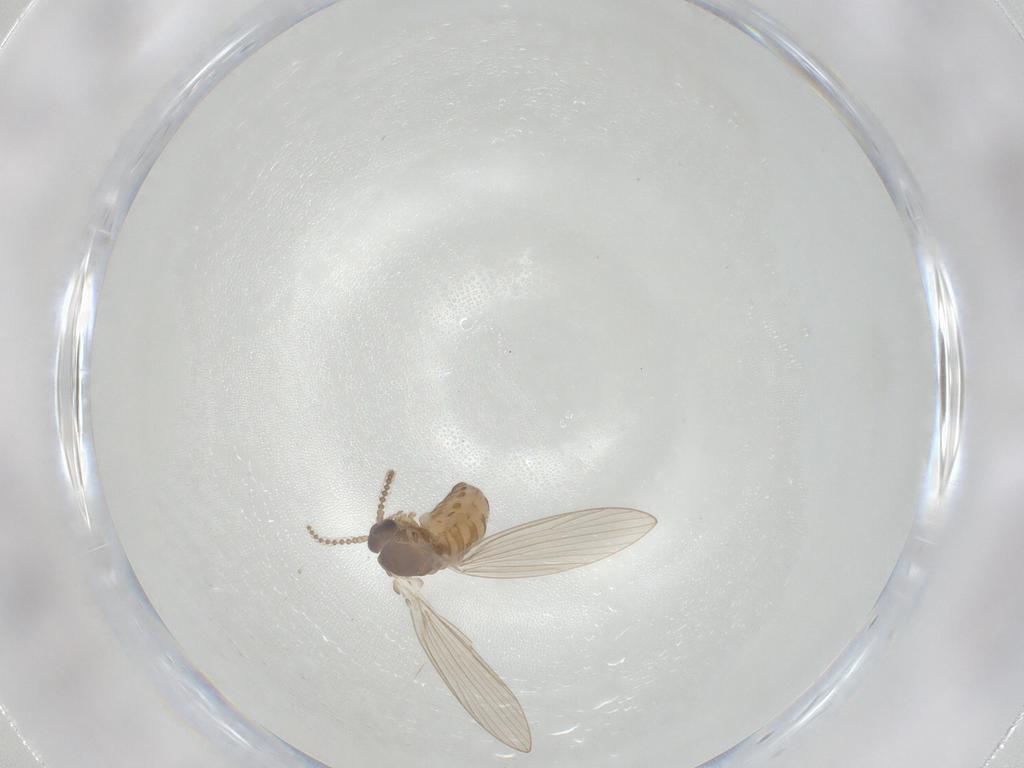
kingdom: Animalia
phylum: Arthropoda
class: Insecta
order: Diptera
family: Psychodidae
